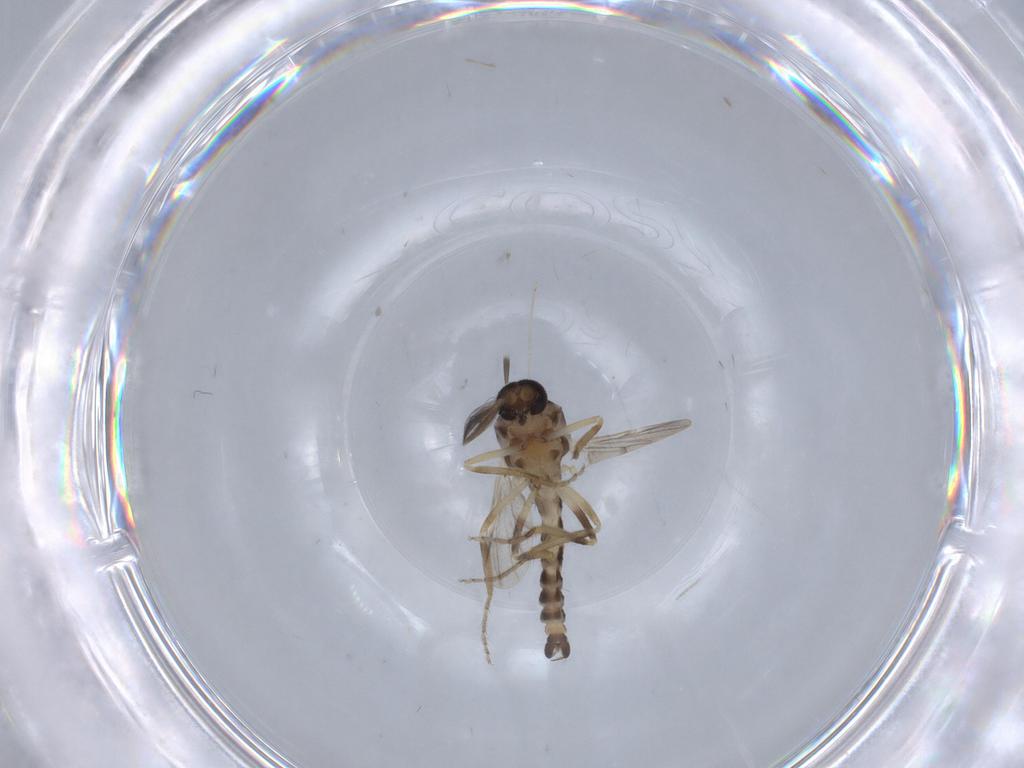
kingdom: Animalia
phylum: Arthropoda
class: Insecta
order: Diptera
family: Ceratopogonidae
